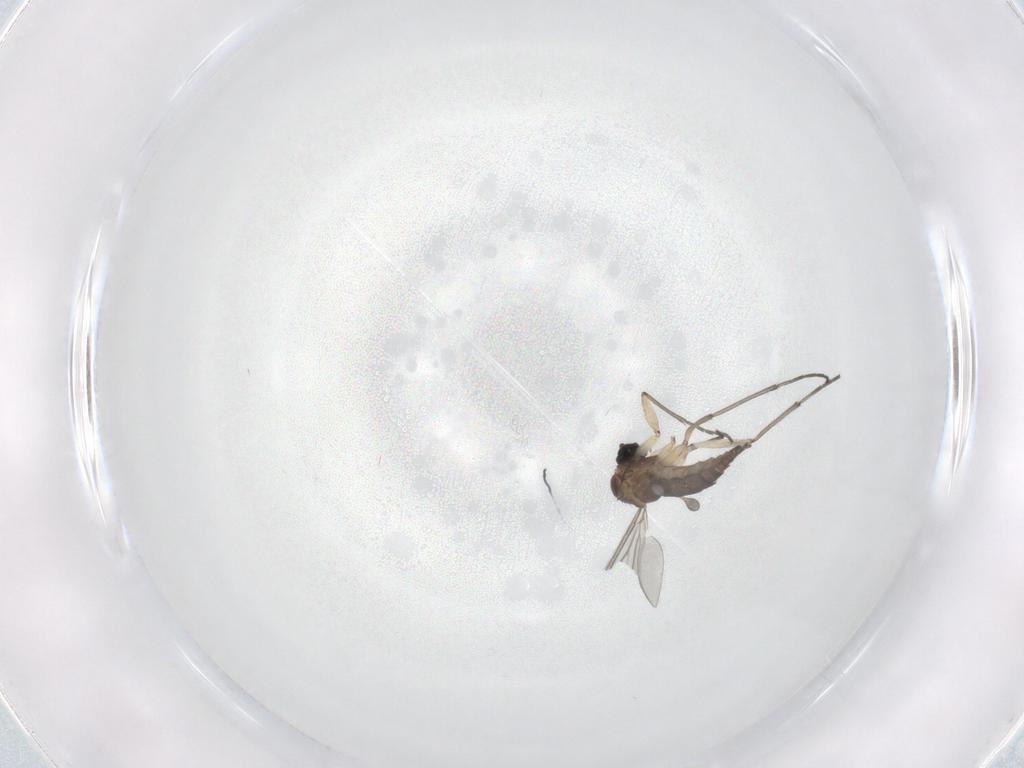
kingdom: Animalia
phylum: Arthropoda
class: Insecta
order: Diptera
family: Sciaridae
